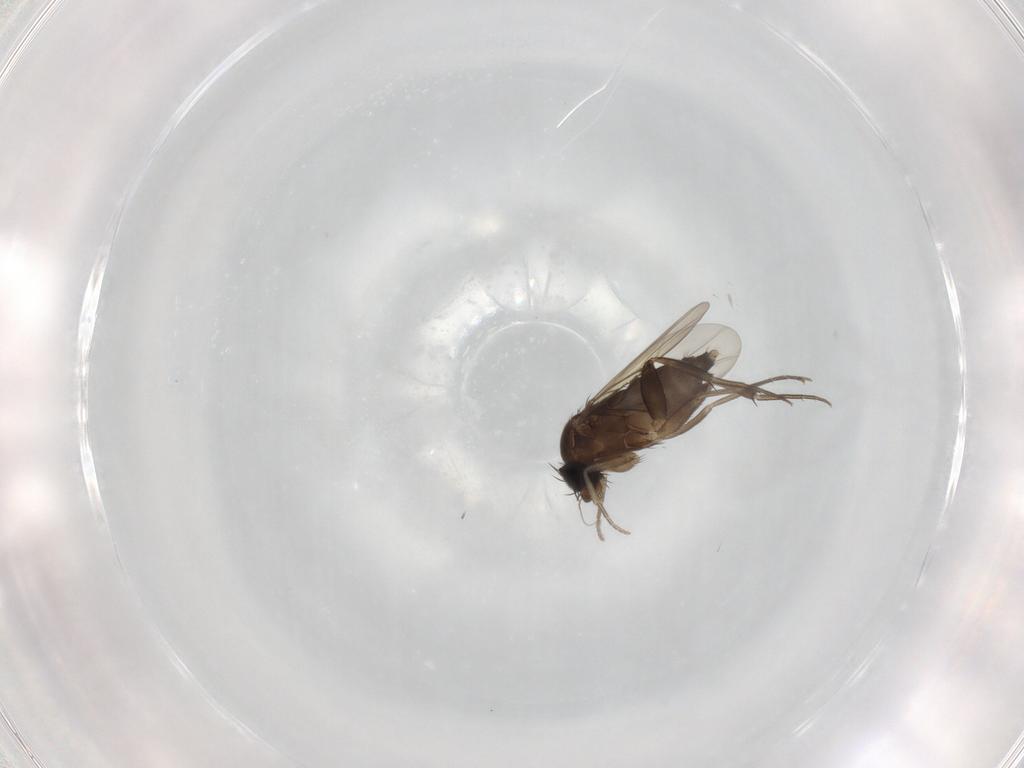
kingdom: Animalia
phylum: Arthropoda
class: Insecta
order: Diptera
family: Phoridae
